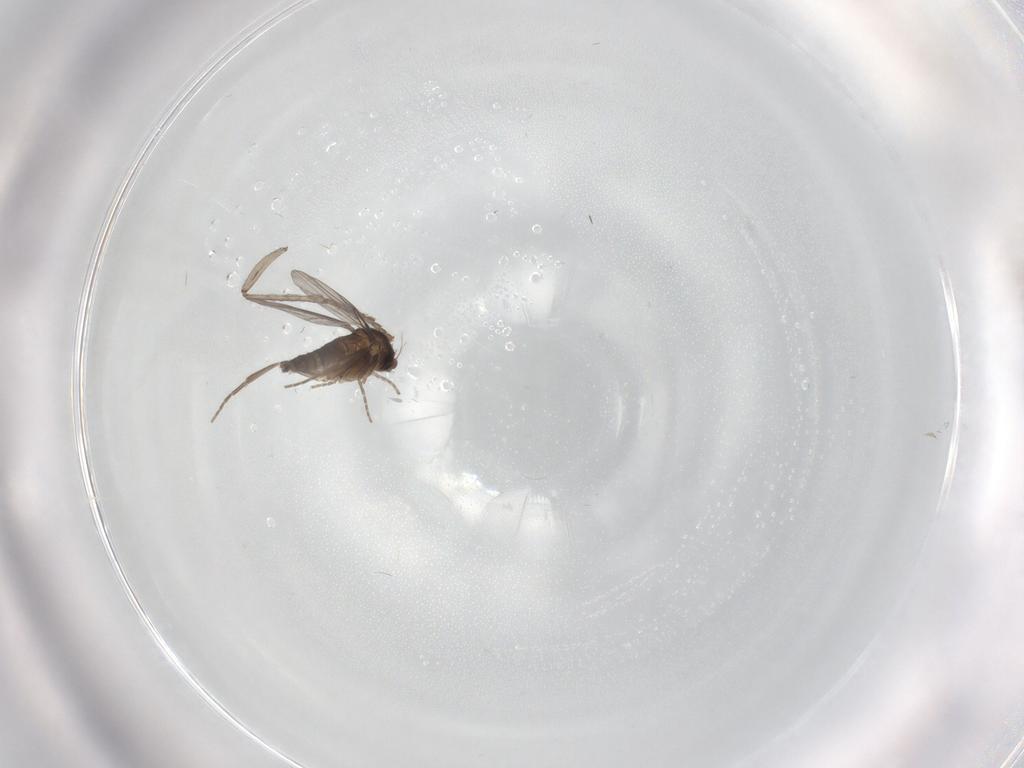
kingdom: Animalia
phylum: Arthropoda
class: Insecta
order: Diptera
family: Psychodidae
